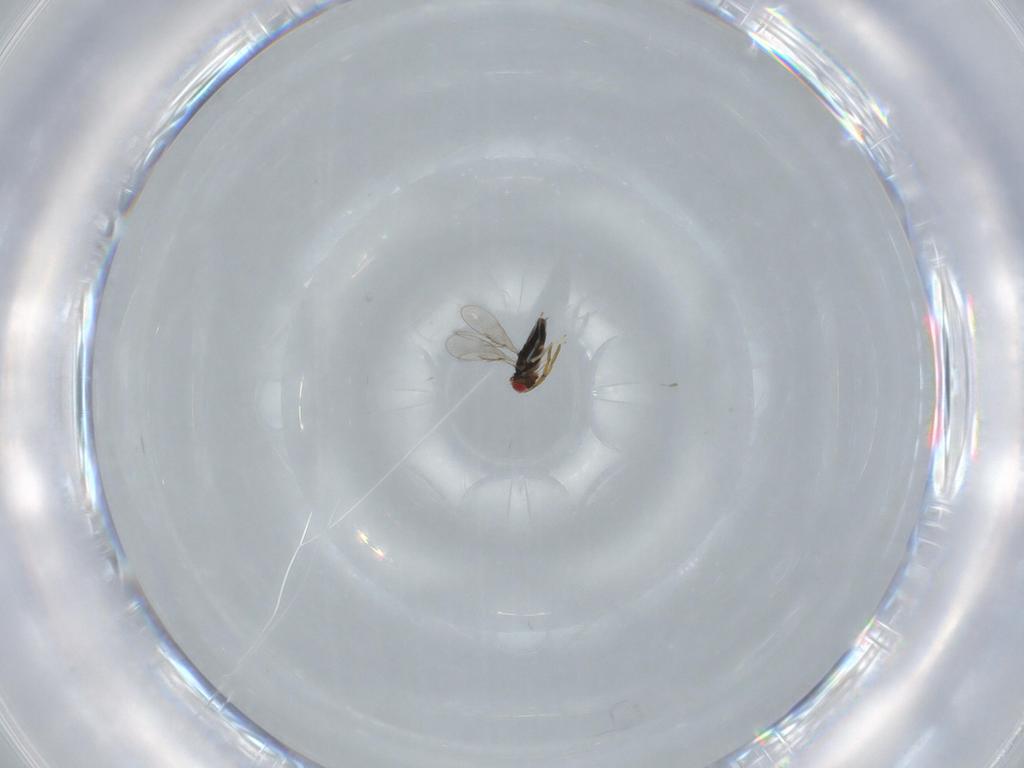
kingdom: Animalia
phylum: Arthropoda
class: Insecta
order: Hymenoptera
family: Azotidae
